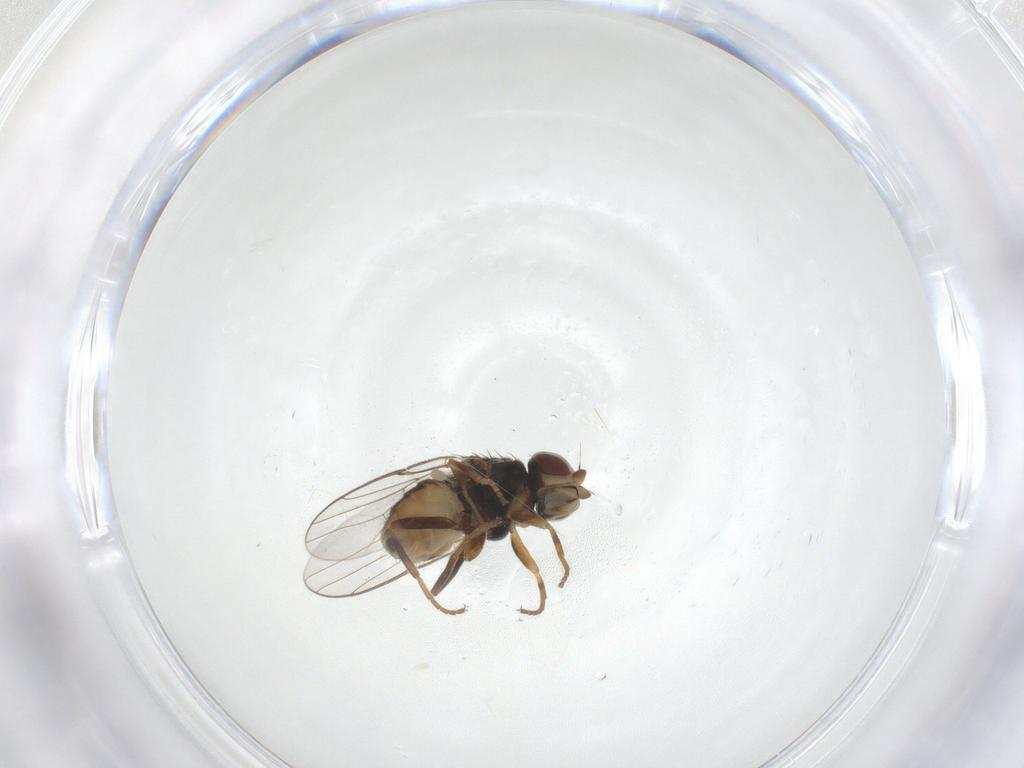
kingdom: Animalia
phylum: Arthropoda
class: Insecta
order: Diptera
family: Chloropidae
